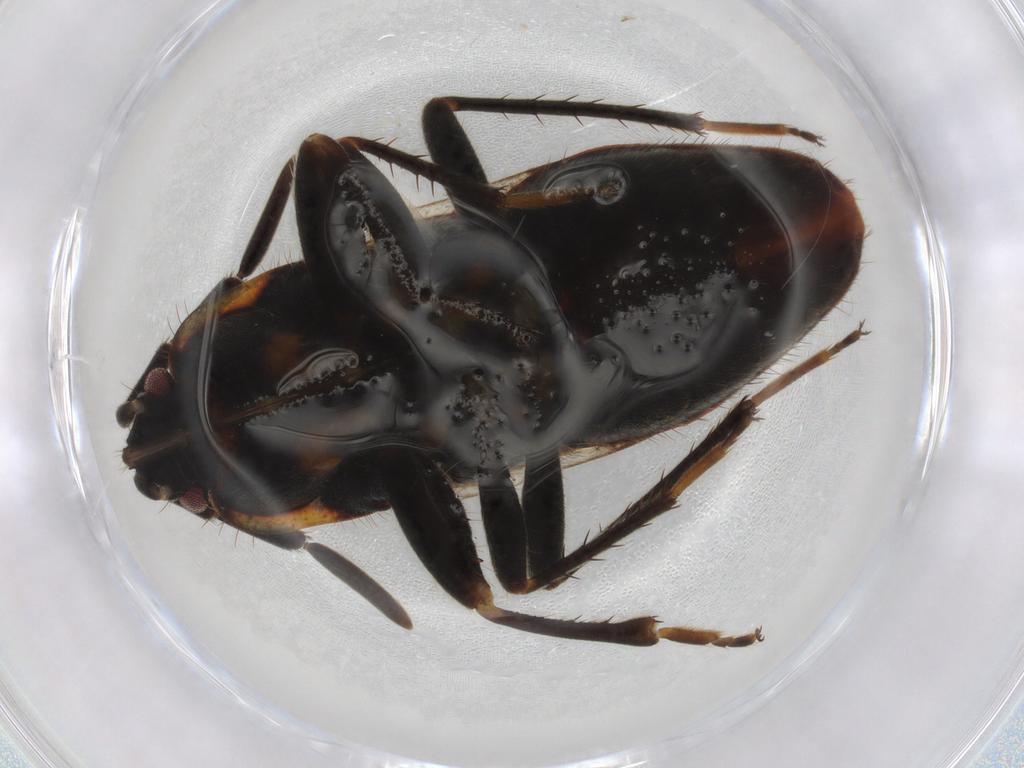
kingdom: Animalia
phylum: Arthropoda
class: Insecta
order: Hemiptera
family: Rhyparochromidae
